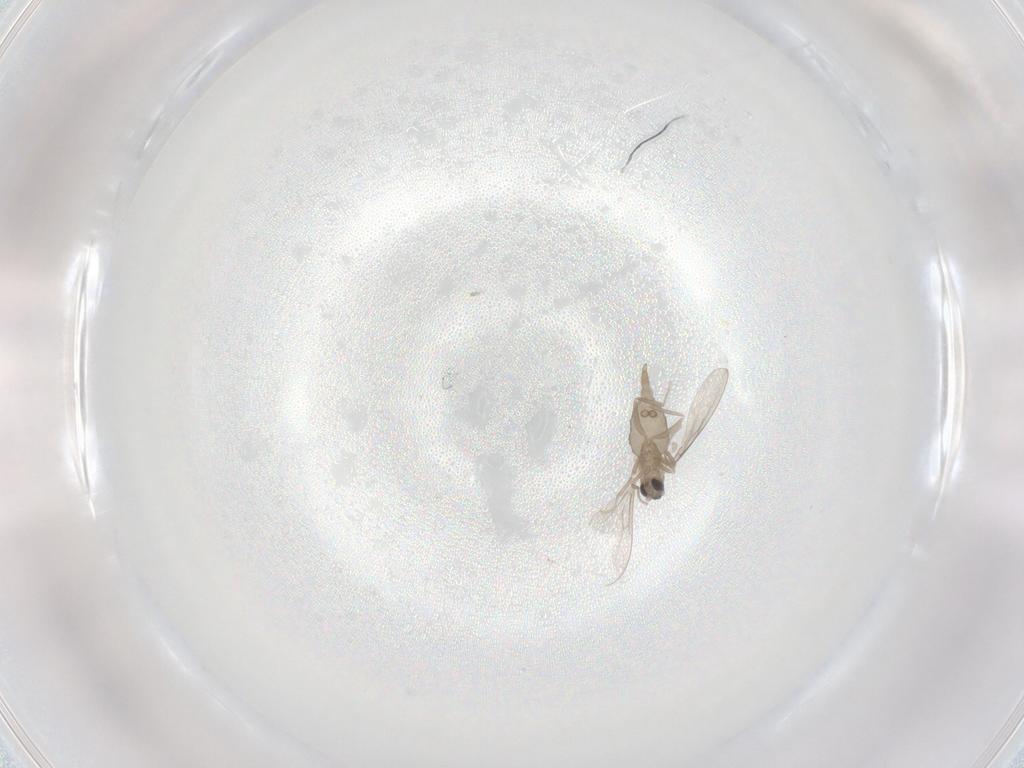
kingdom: Animalia
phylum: Arthropoda
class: Insecta
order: Diptera
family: Cecidomyiidae
